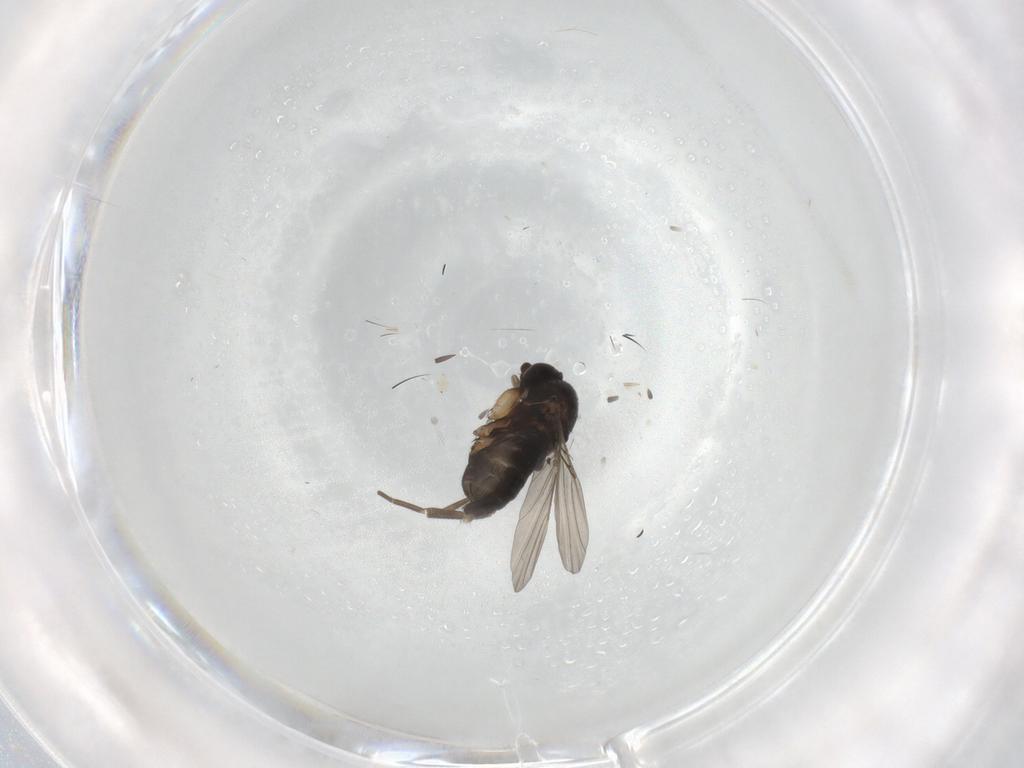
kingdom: Animalia
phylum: Arthropoda
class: Insecta
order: Diptera
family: Phoridae
